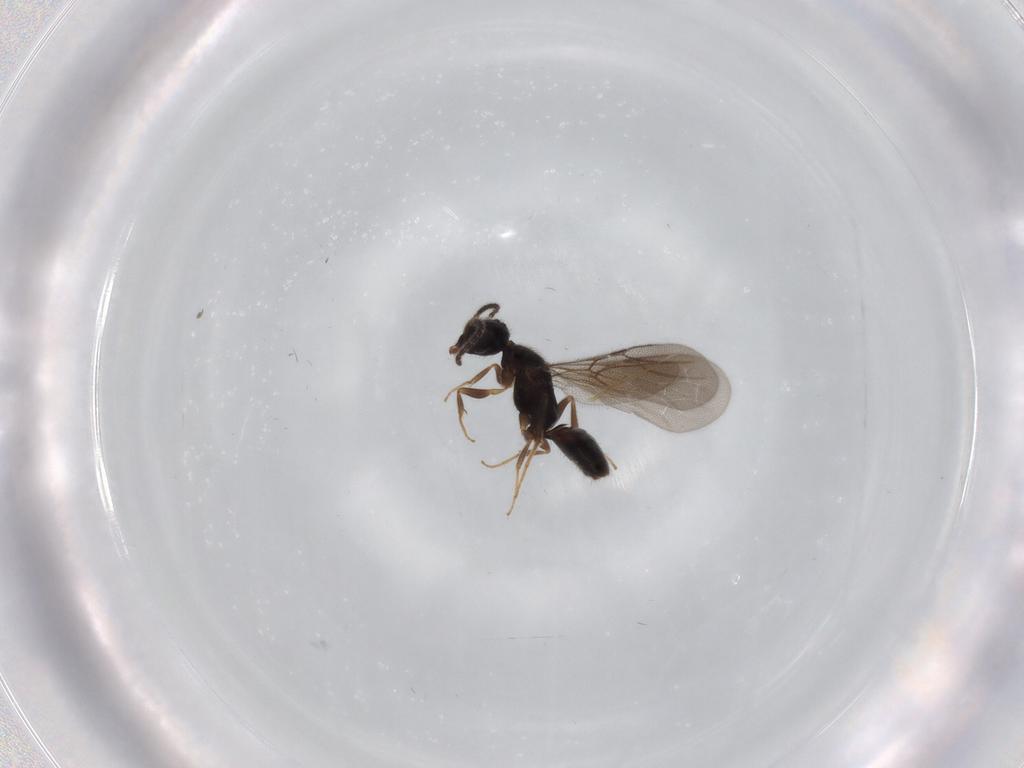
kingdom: Animalia
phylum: Arthropoda
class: Insecta
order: Hymenoptera
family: Bethylidae
